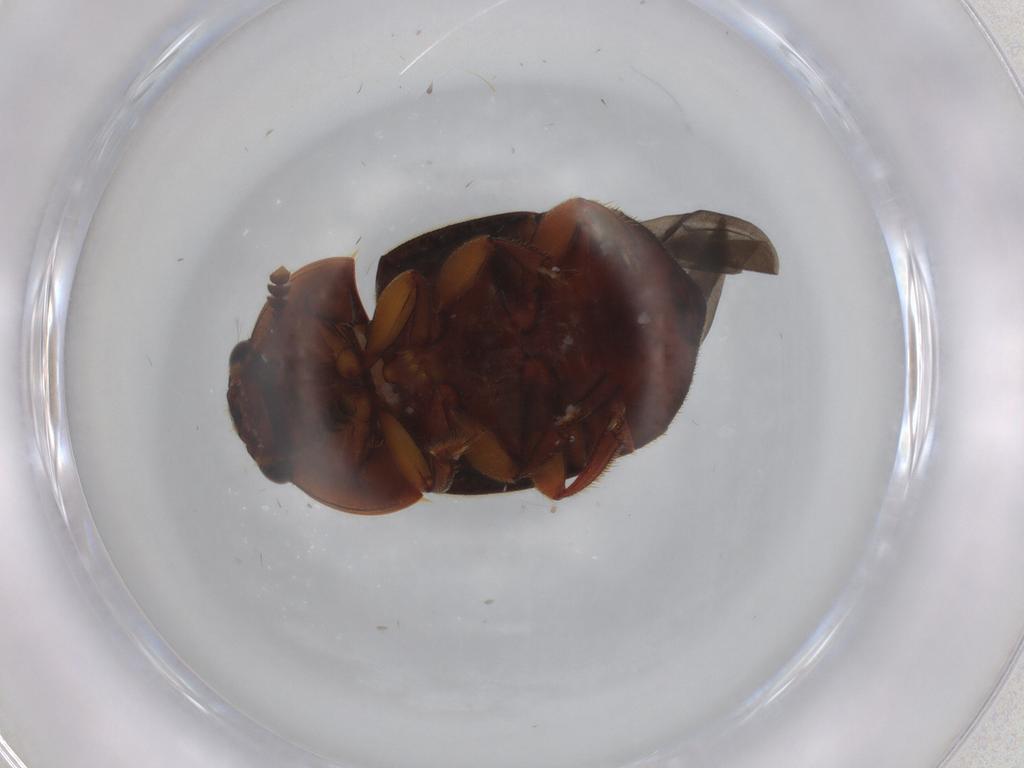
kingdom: Animalia
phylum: Arthropoda
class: Insecta
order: Coleoptera
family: Nitidulidae
